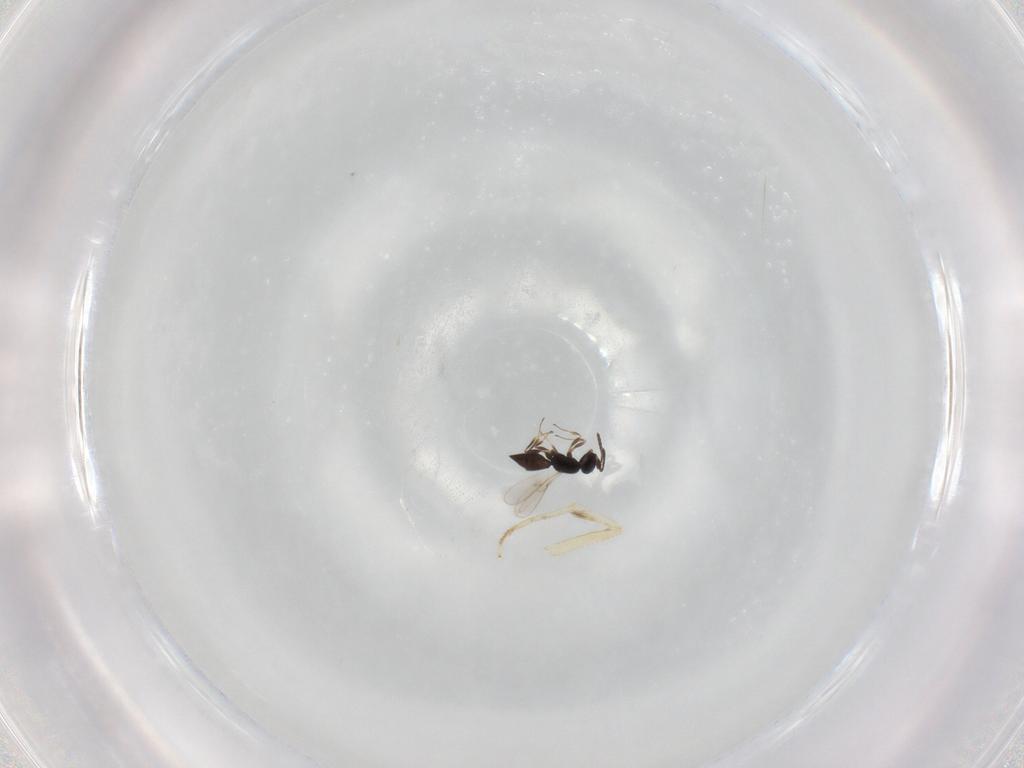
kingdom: Animalia
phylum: Arthropoda
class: Insecta
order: Hymenoptera
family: Scelionidae
